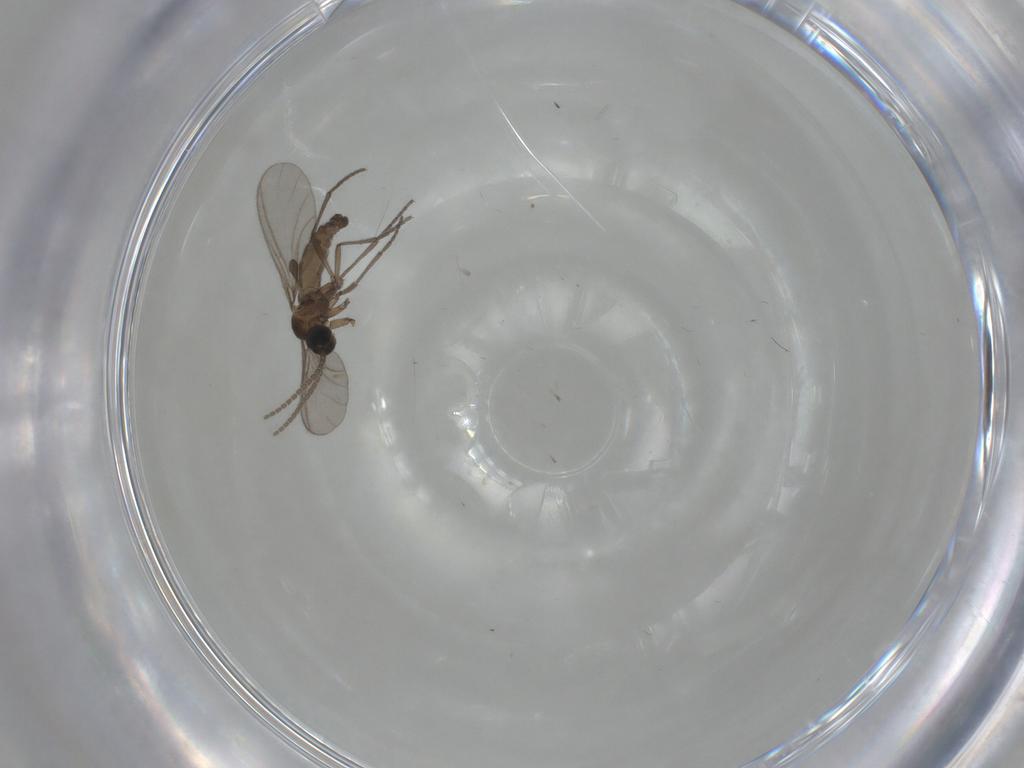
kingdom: Animalia
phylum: Arthropoda
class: Insecta
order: Diptera
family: Sciaridae
